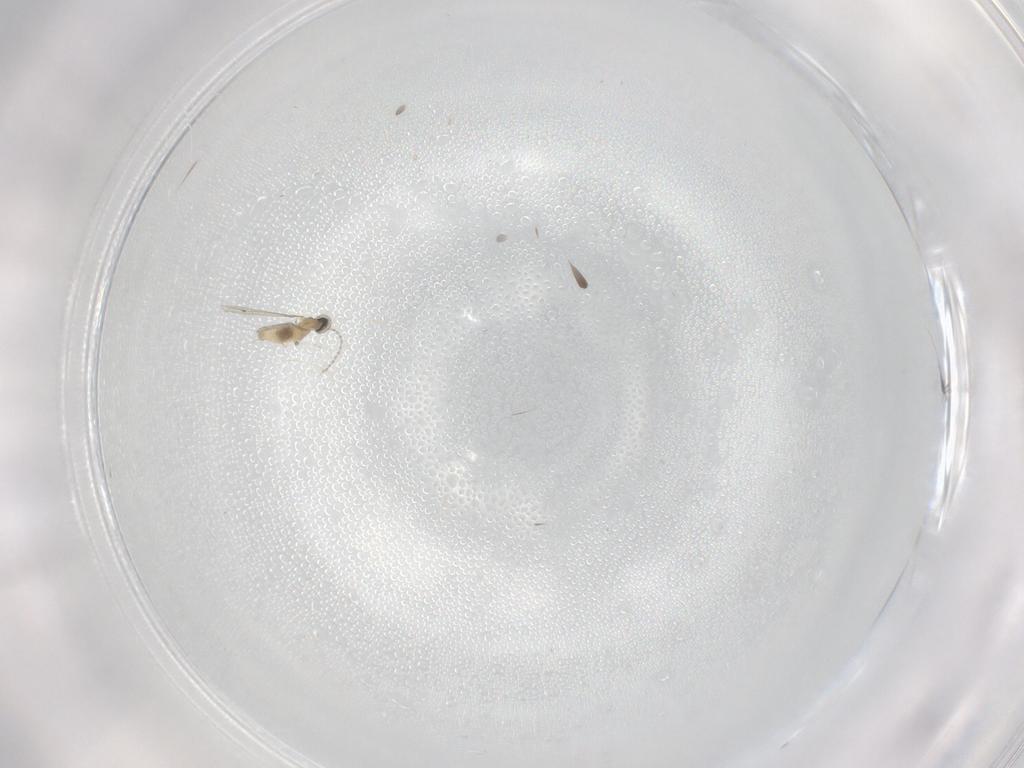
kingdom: Animalia
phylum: Arthropoda
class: Insecta
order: Diptera
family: Cecidomyiidae
